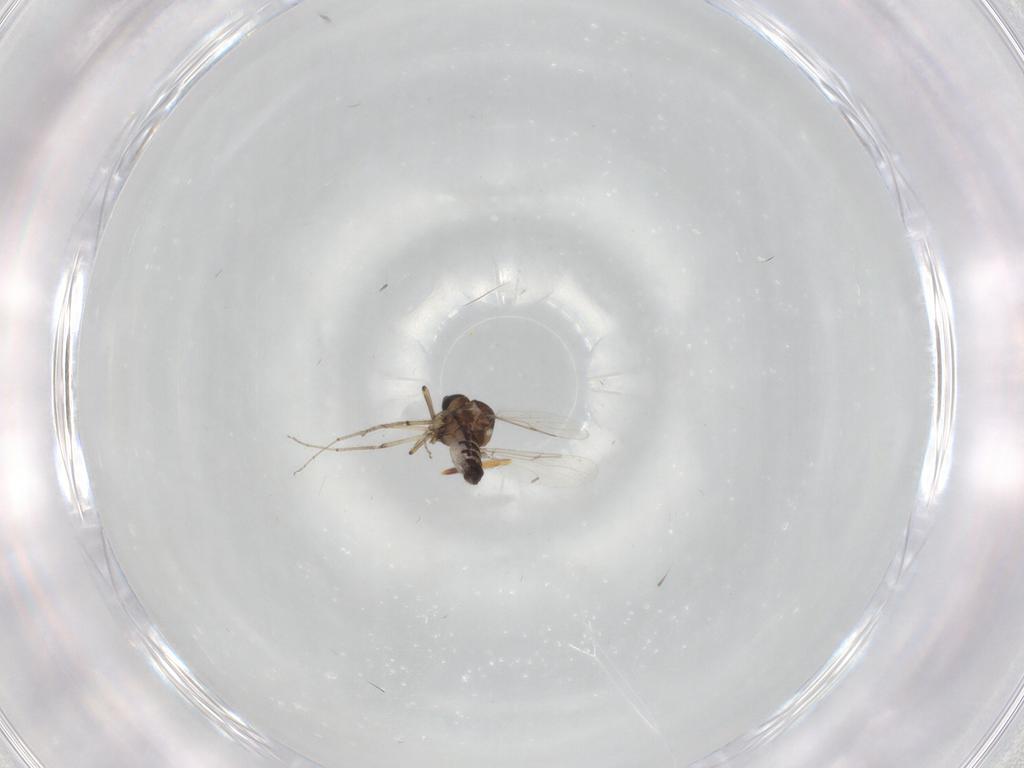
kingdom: Animalia
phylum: Arthropoda
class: Insecta
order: Diptera
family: Ceratopogonidae
